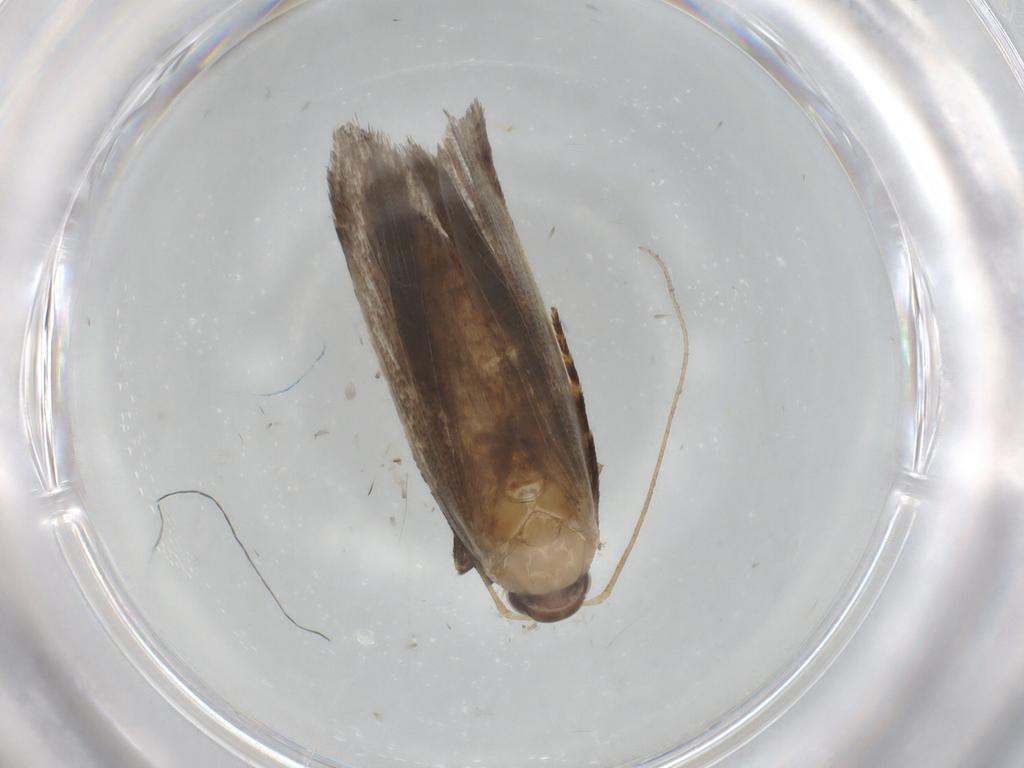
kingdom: Animalia
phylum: Arthropoda
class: Insecta
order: Lepidoptera
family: Gelechiidae
